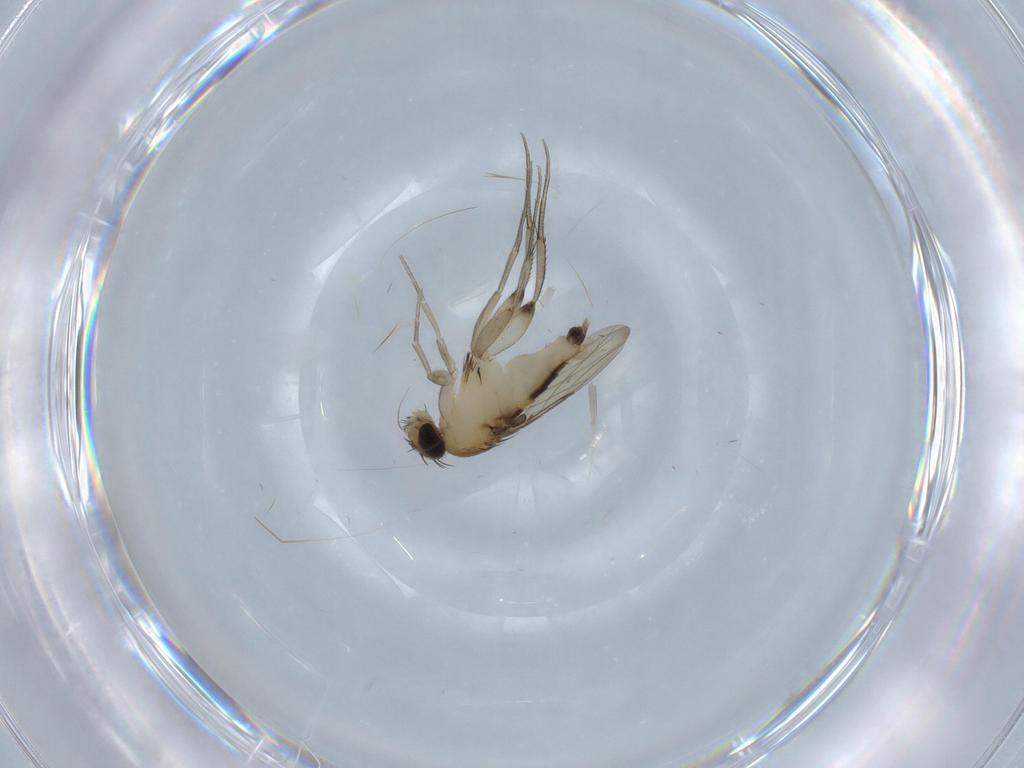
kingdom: Animalia
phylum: Arthropoda
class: Insecta
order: Diptera
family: Phoridae
